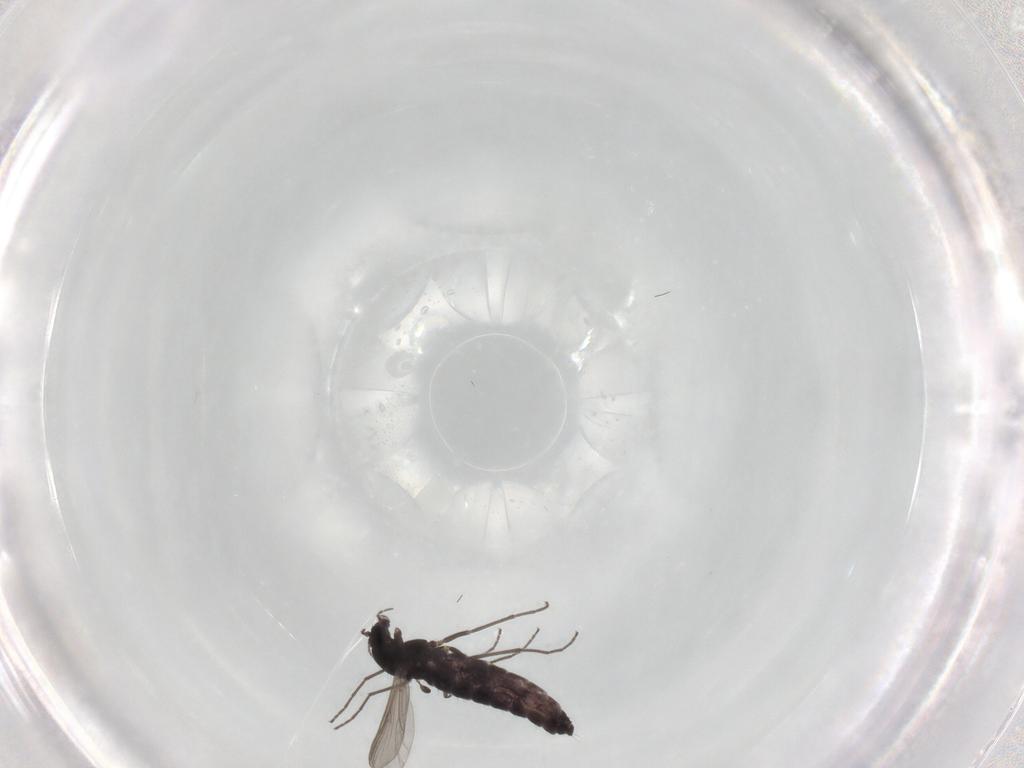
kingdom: Animalia
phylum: Arthropoda
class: Insecta
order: Diptera
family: Chironomidae
